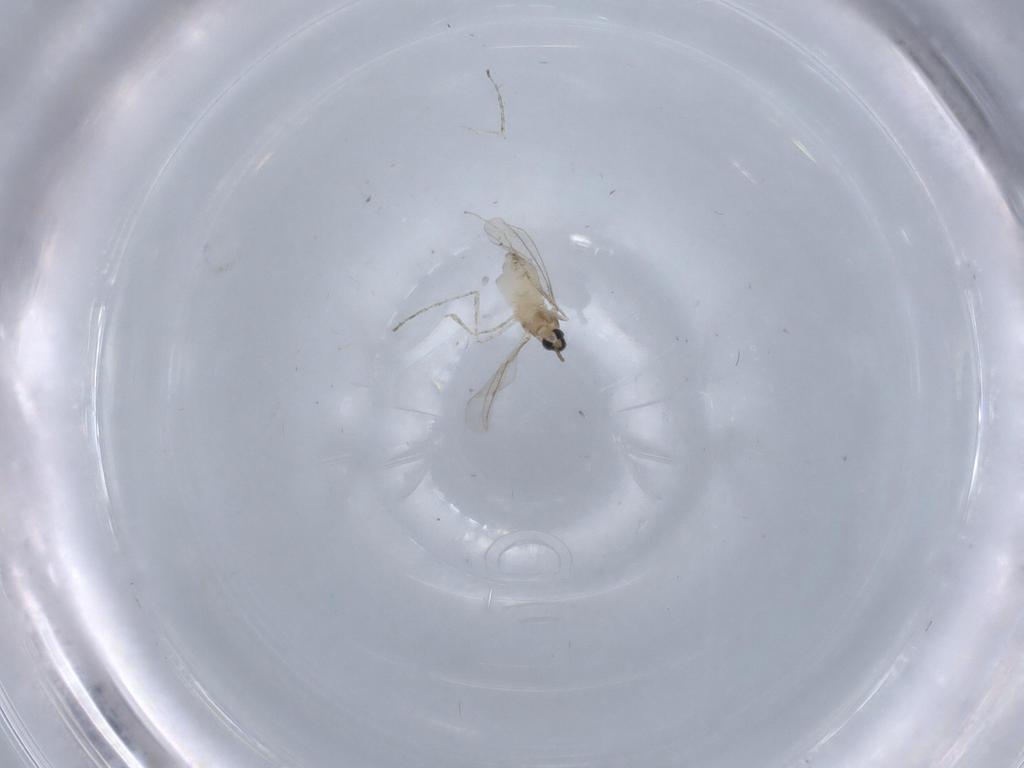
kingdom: Animalia
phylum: Arthropoda
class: Insecta
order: Diptera
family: Cecidomyiidae
